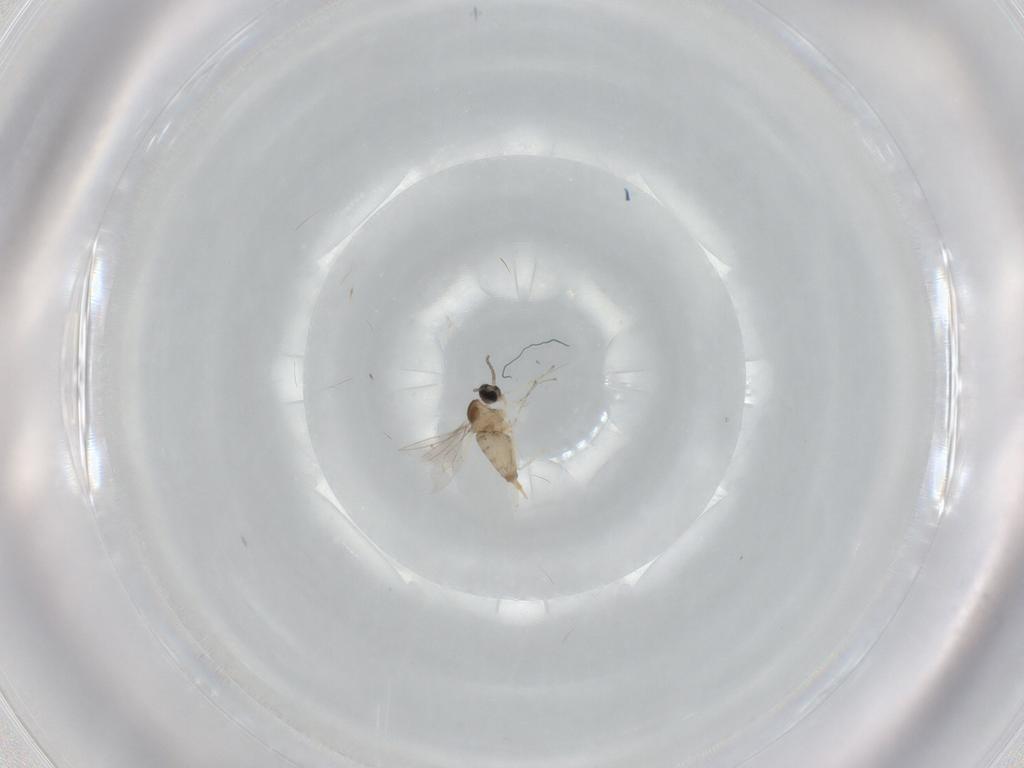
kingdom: Animalia
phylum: Arthropoda
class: Insecta
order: Diptera
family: Cecidomyiidae
